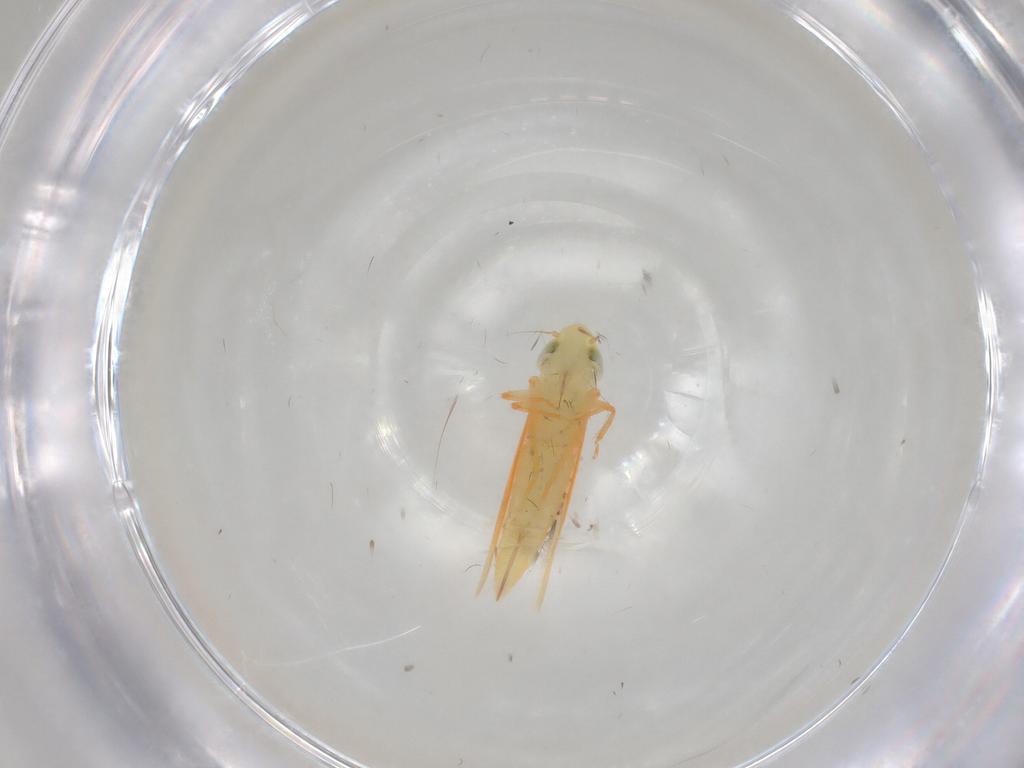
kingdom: Animalia
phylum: Arthropoda
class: Insecta
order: Hemiptera
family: Cicadellidae
